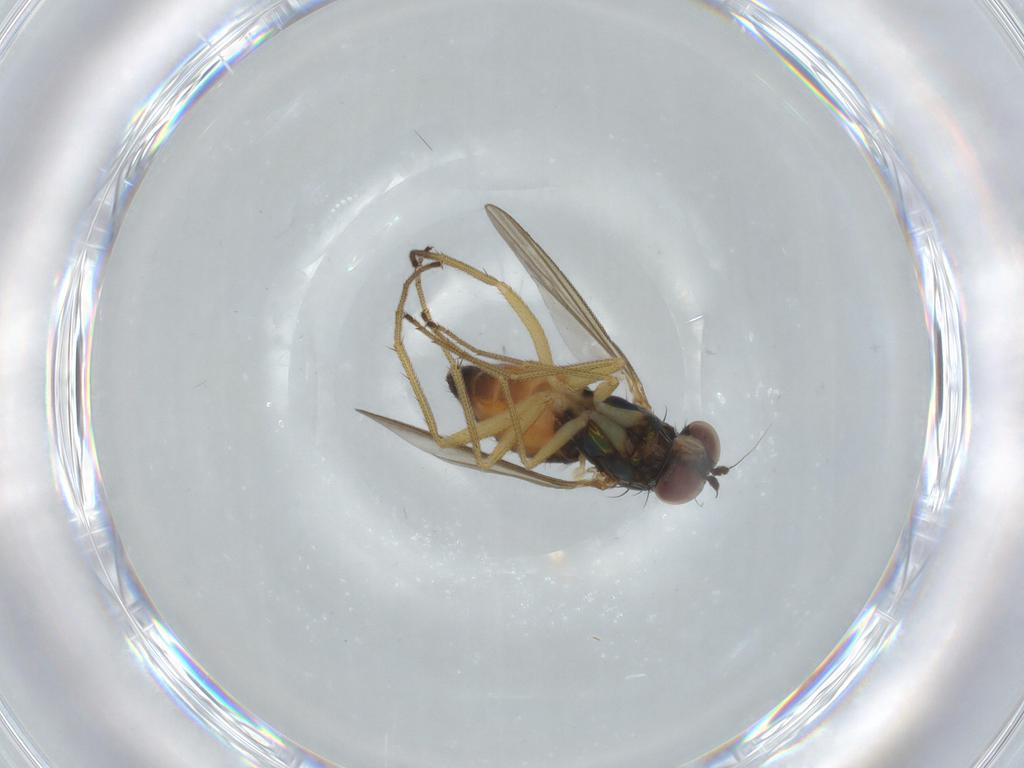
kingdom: Animalia
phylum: Arthropoda
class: Insecta
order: Diptera
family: Dolichopodidae
